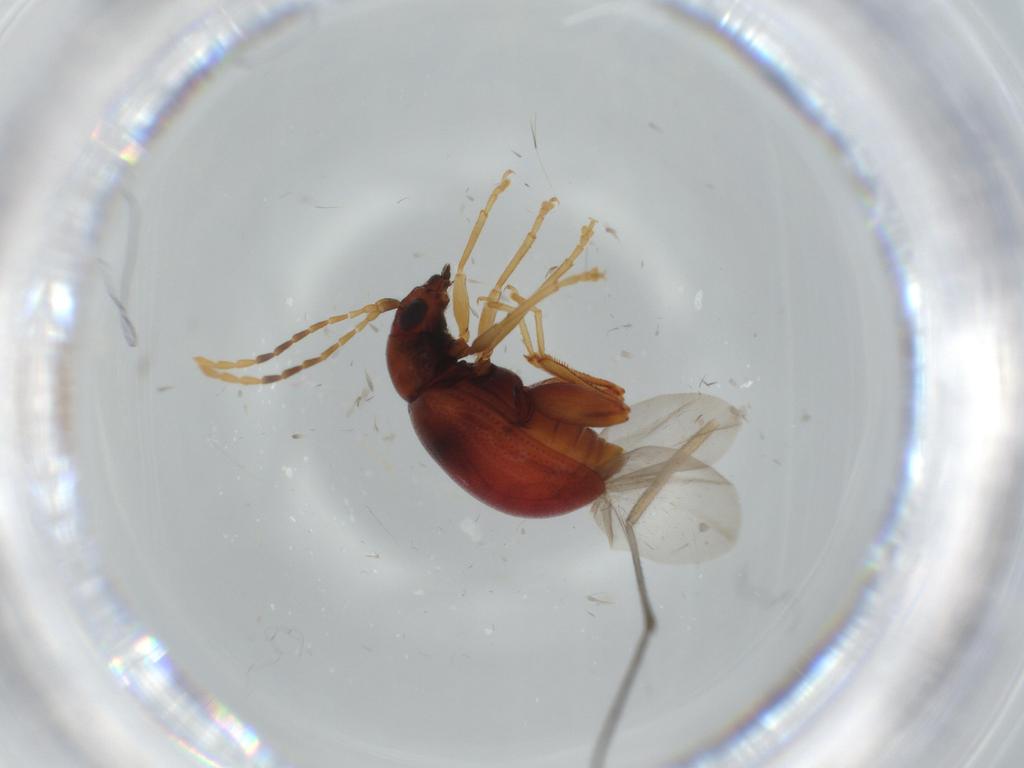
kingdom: Animalia
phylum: Arthropoda
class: Insecta
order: Coleoptera
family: Chrysomelidae
